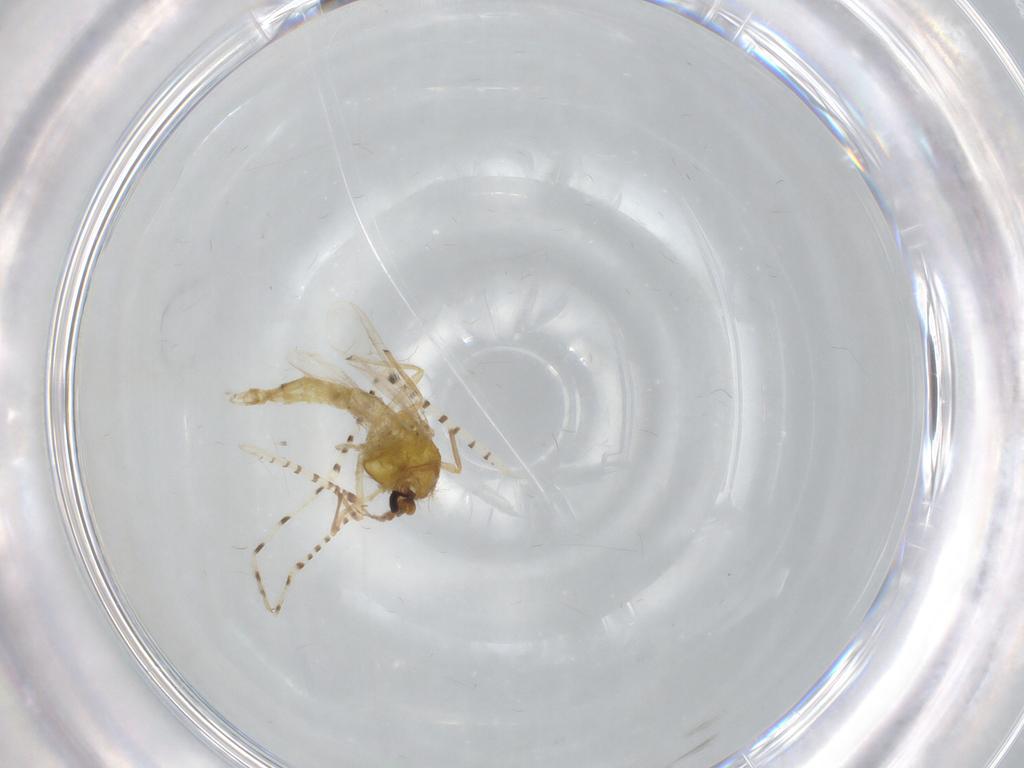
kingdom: Animalia
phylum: Arthropoda
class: Insecta
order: Diptera
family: Chaoboridae
